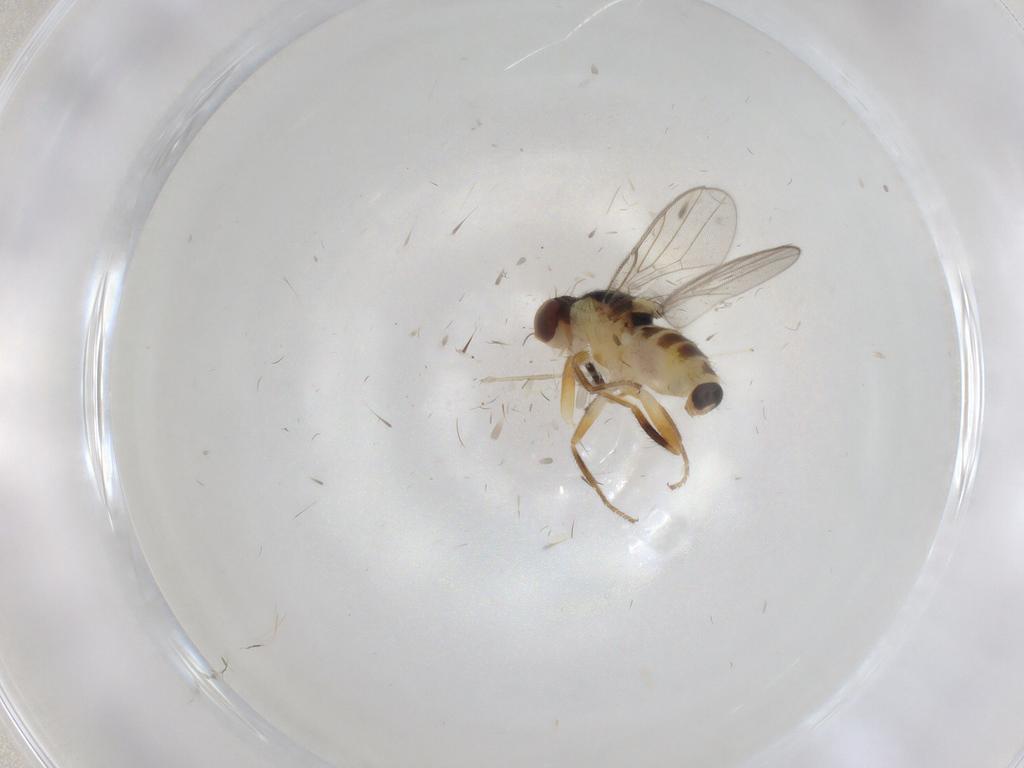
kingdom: Animalia
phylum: Arthropoda
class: Insecta
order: Diptera
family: Chloropidae
